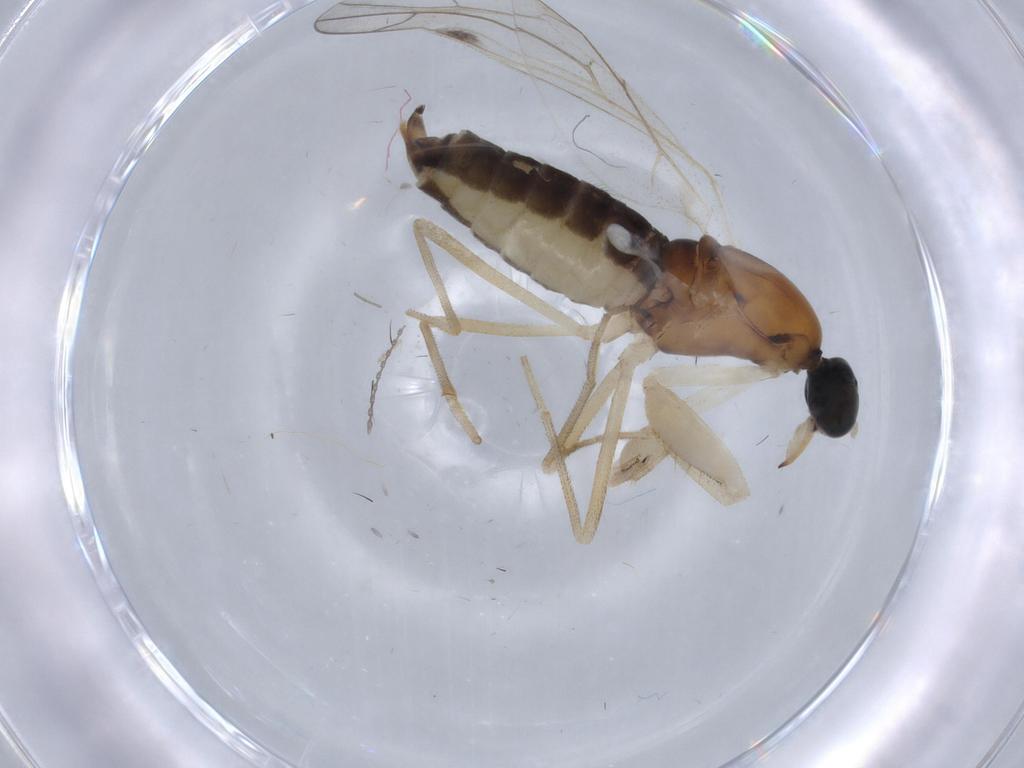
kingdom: Animalia
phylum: Arthropoda
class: Insecta
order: Diptera
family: Empididae
